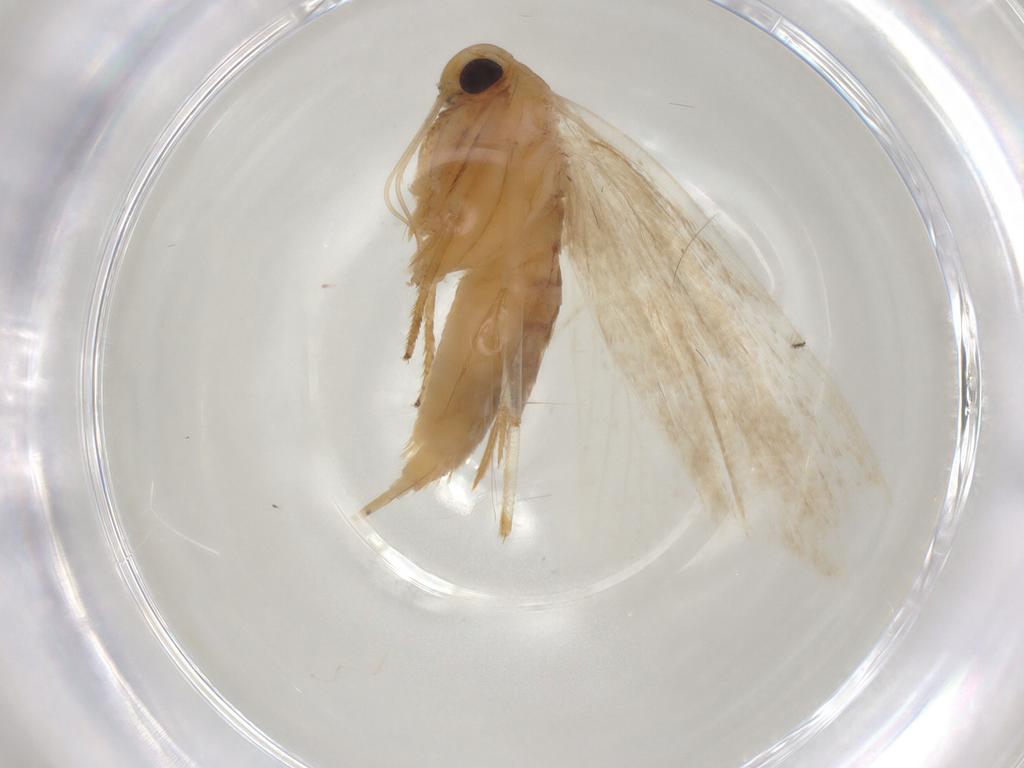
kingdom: Animalia
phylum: Arthropoda
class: Insecta
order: Lepidoptera
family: Depressariidae
